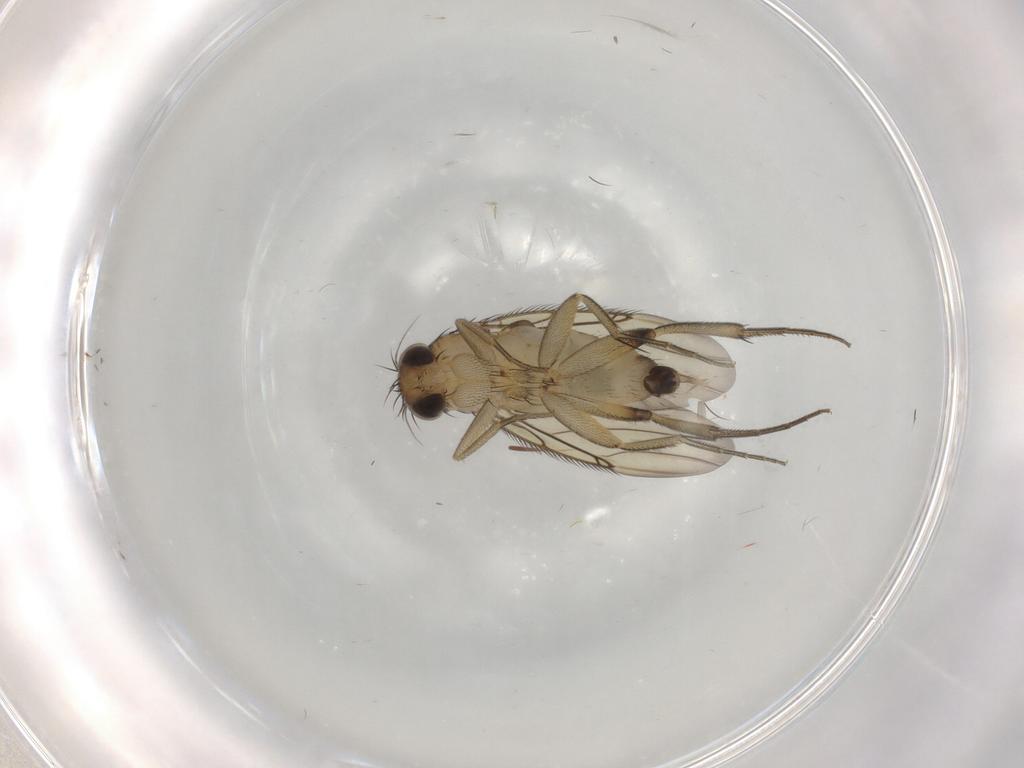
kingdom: Animalia
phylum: Arthropoda
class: Insecta
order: Diptera
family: Phoridae
